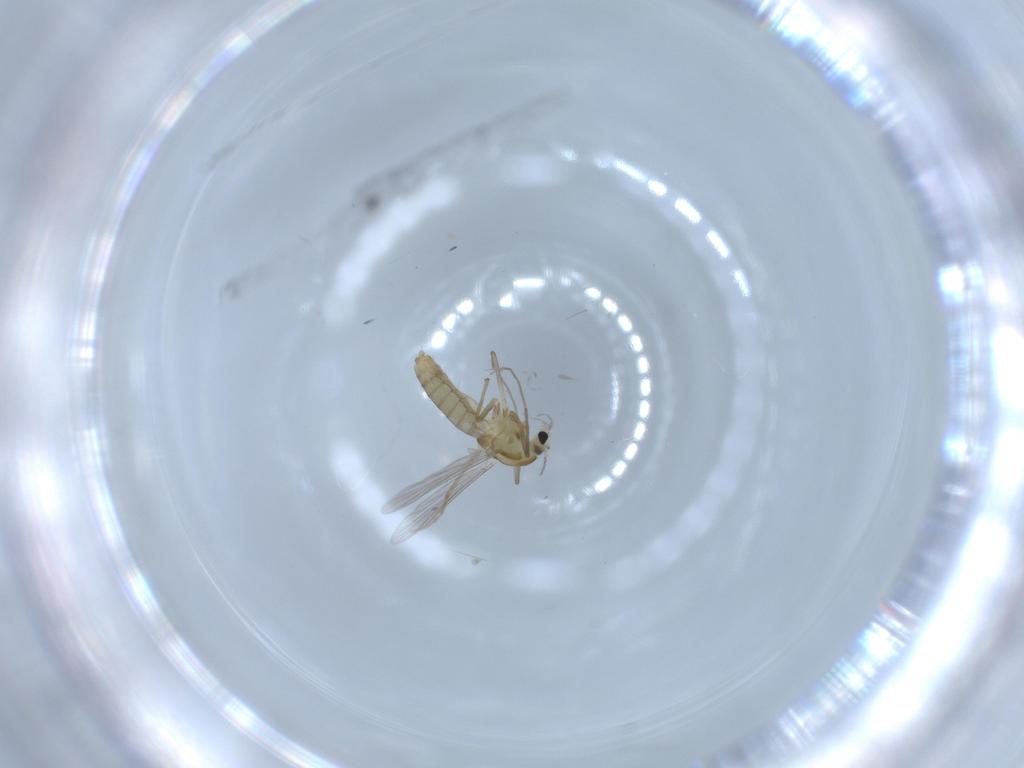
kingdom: Animalia
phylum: Arthropoda
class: Insecta
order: Diptera
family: Chironomidae
